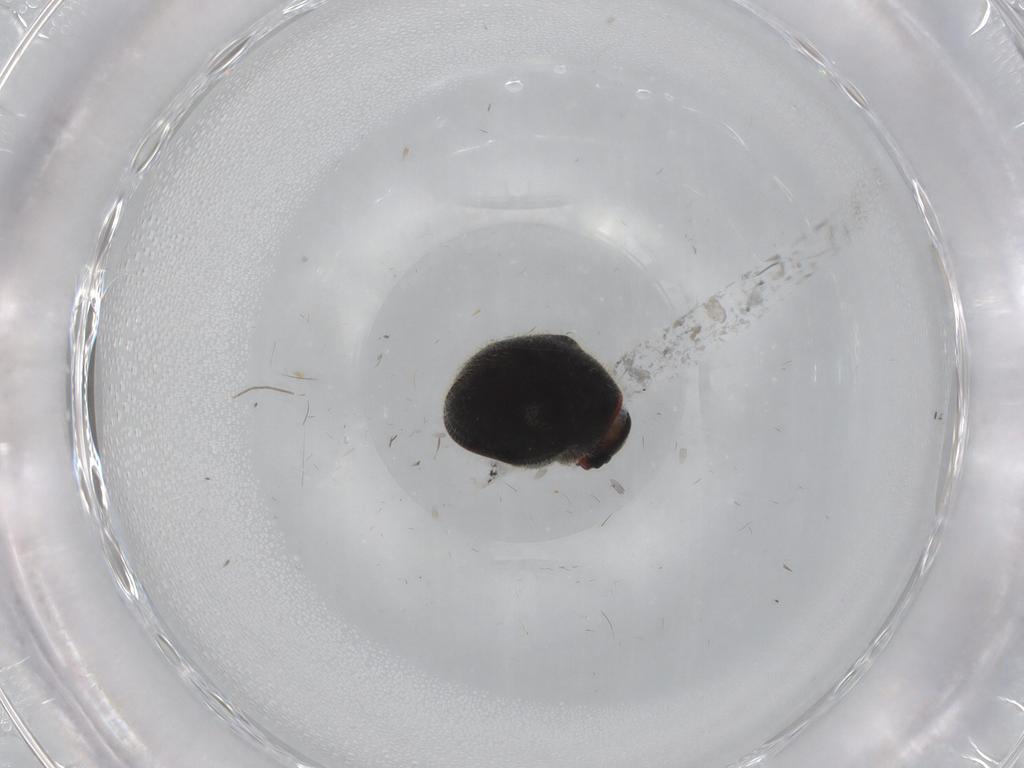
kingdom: Animalia
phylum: Arthropoda
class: Insecta
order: Coleoptera
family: Ptinidae
